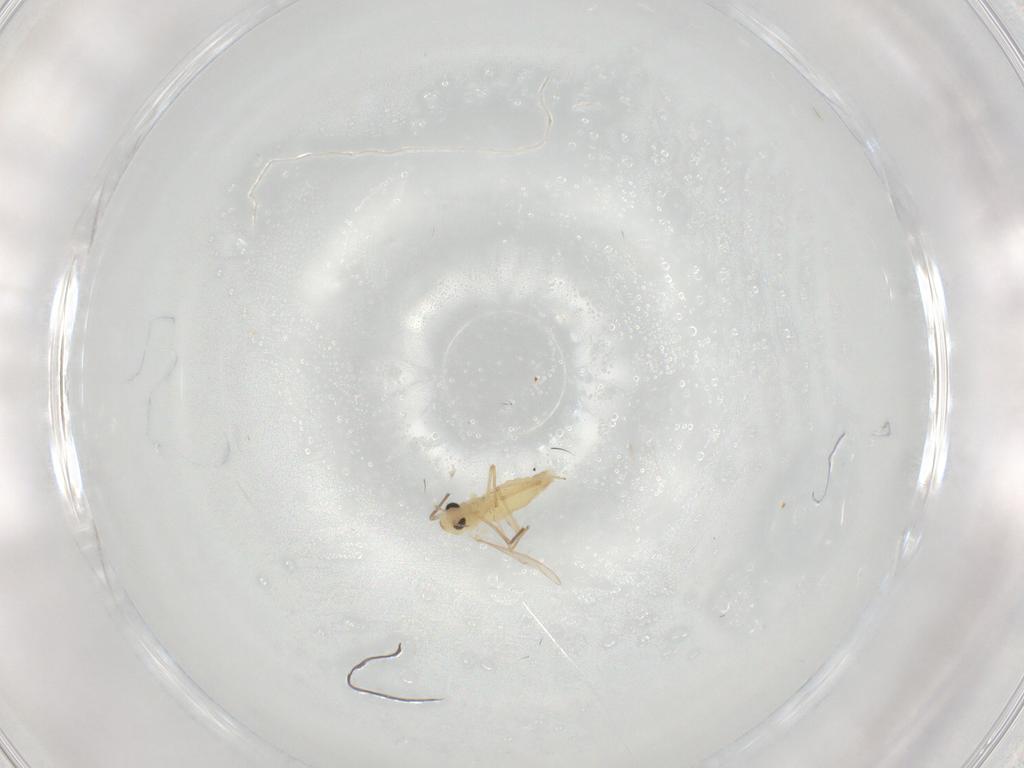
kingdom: Animalia
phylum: Arthropoda
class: Insecta
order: Diptera
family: Chironomidae
